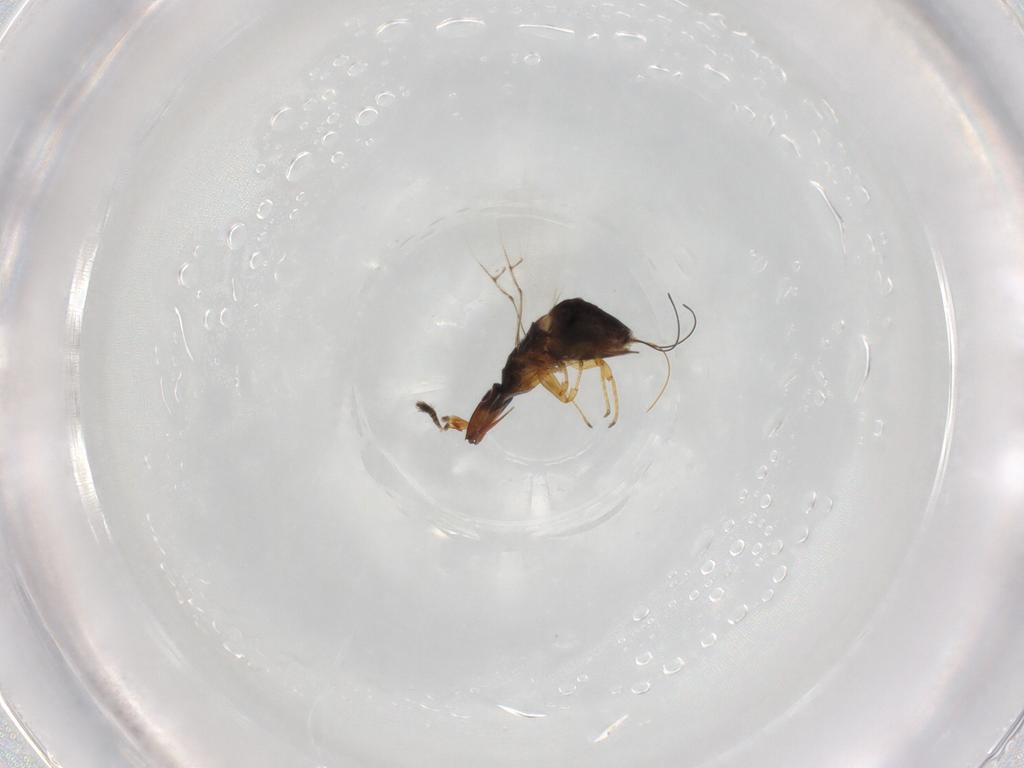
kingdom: Animalia
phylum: Arthropoda
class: Insecta
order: Hymenoptera
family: Agaonidae
